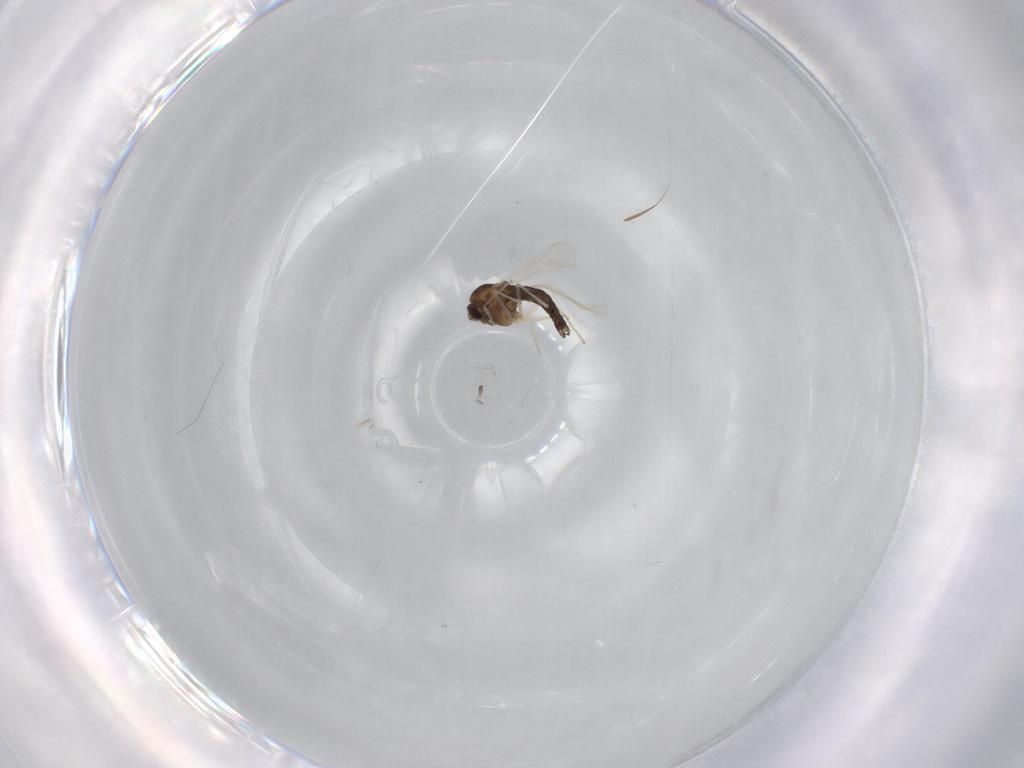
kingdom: Animalia
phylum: Arthropoda
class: Insecta
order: Diptera
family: Chironomidae
